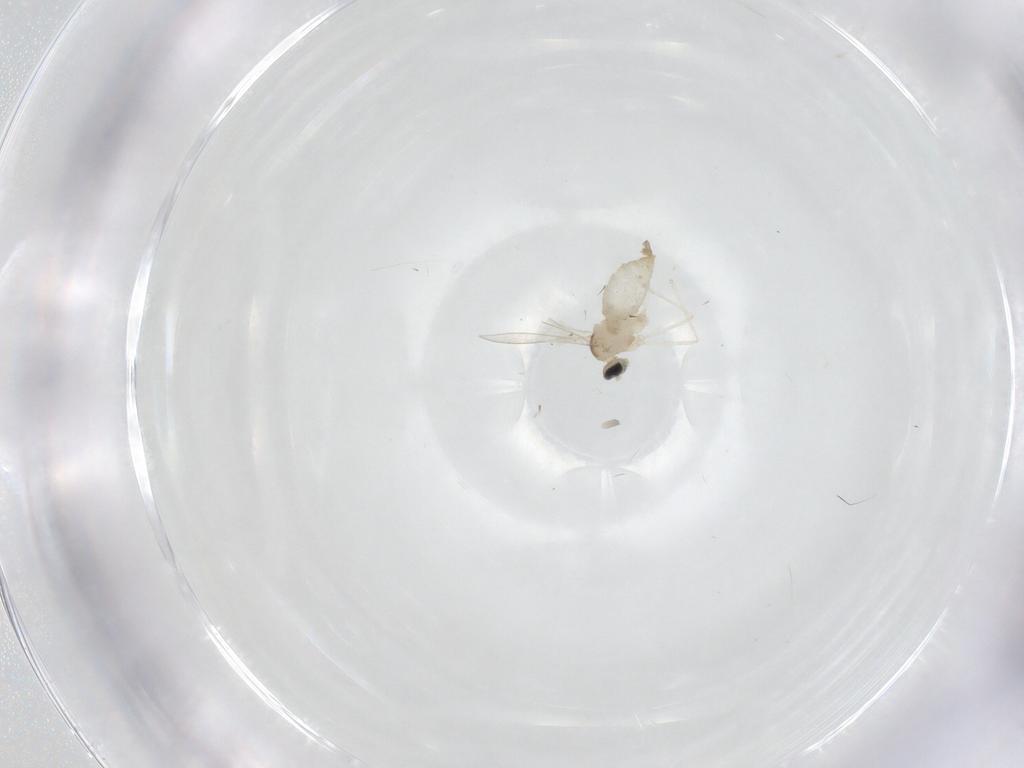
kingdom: Animalia
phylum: Arthropoda
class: Insecta
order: Diptera
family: Cecidomyiidae
